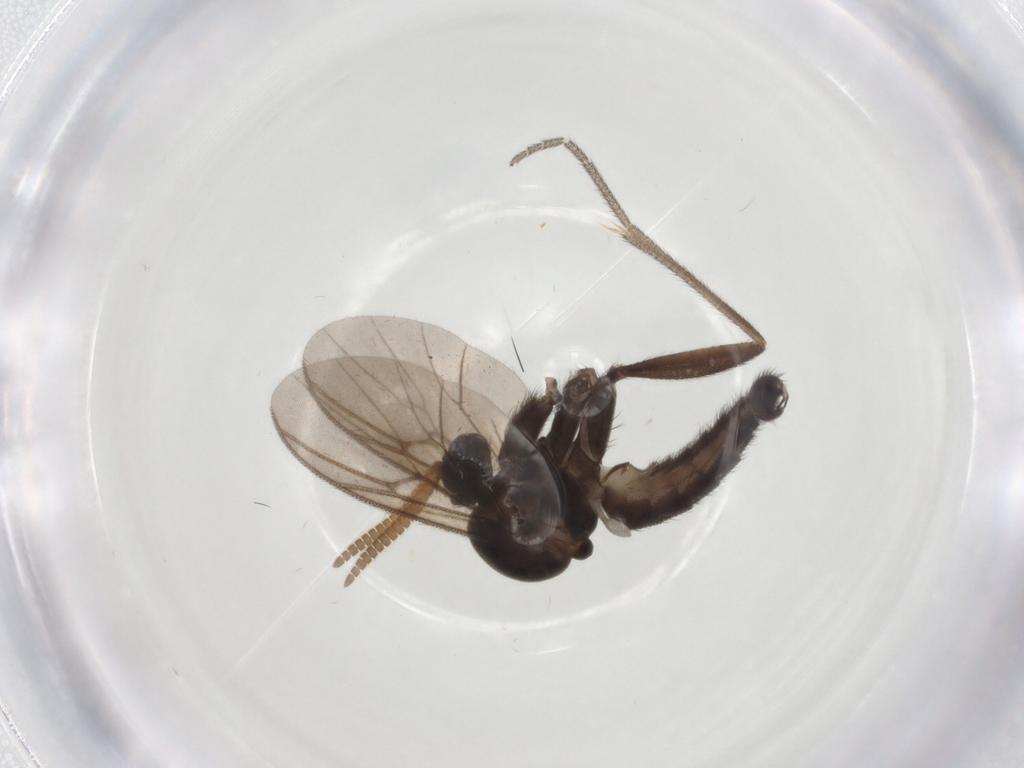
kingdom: Animalia
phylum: Arthropoda
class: Insecta
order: Diptera
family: Mycetophilidae
